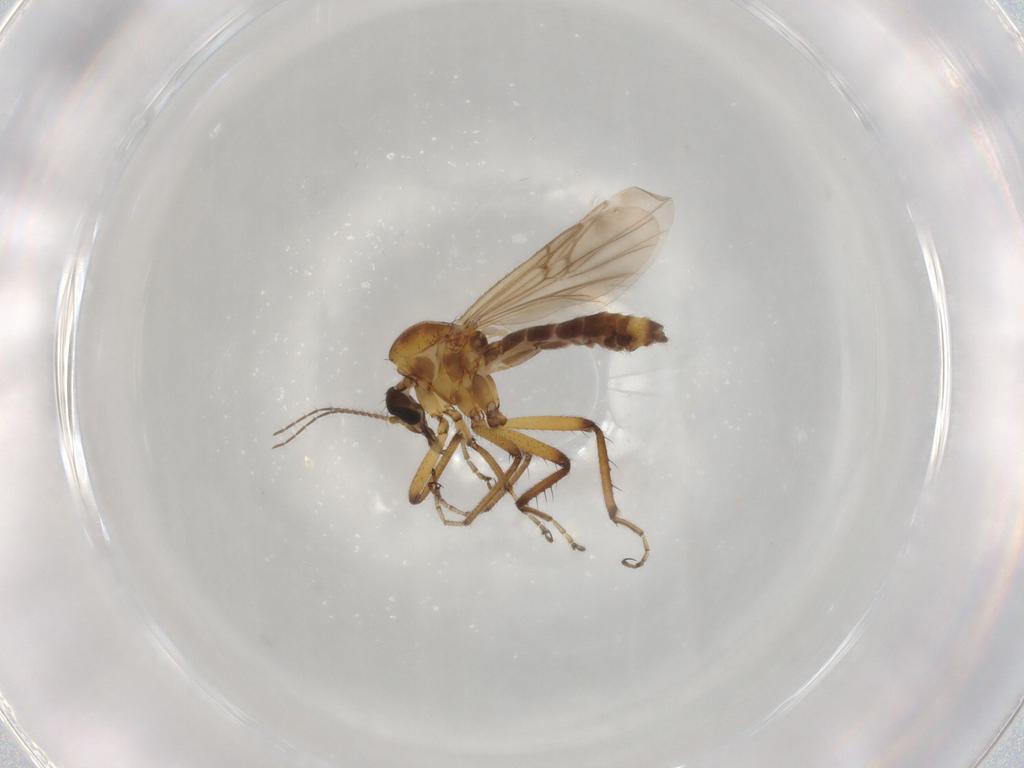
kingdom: Animalia
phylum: Arthropoda
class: Insecta
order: Diptera
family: Ceratopogonidae
